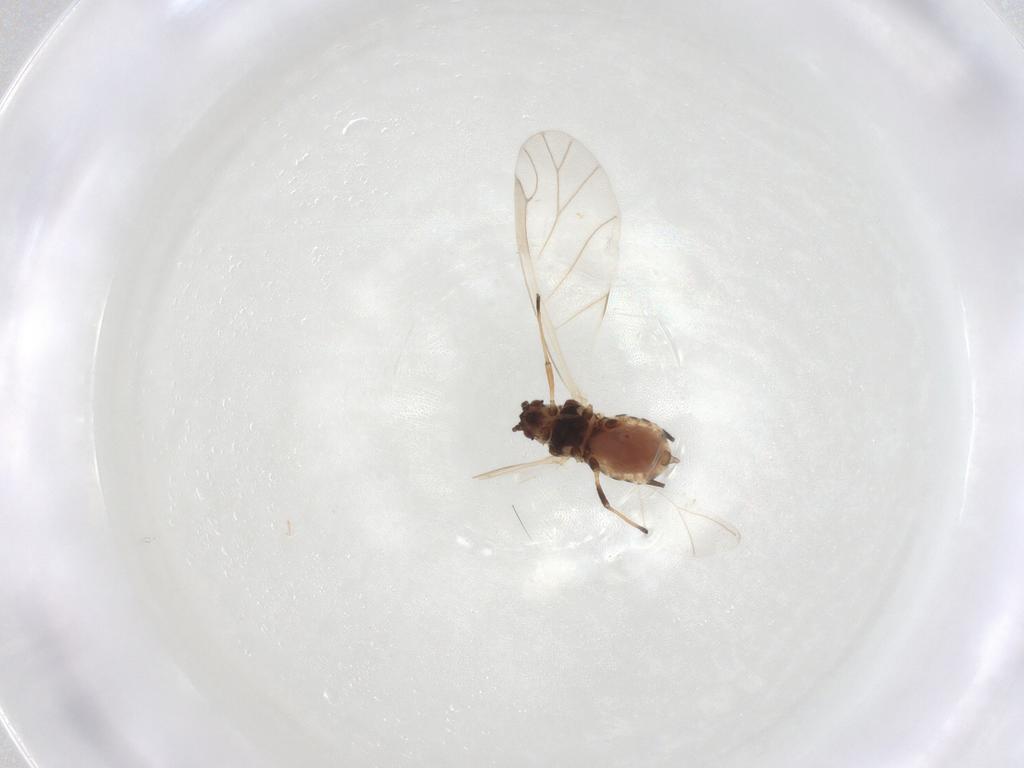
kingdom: Animalia
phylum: Arthropoda
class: Insecta
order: Hemiptera
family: Aphididae
